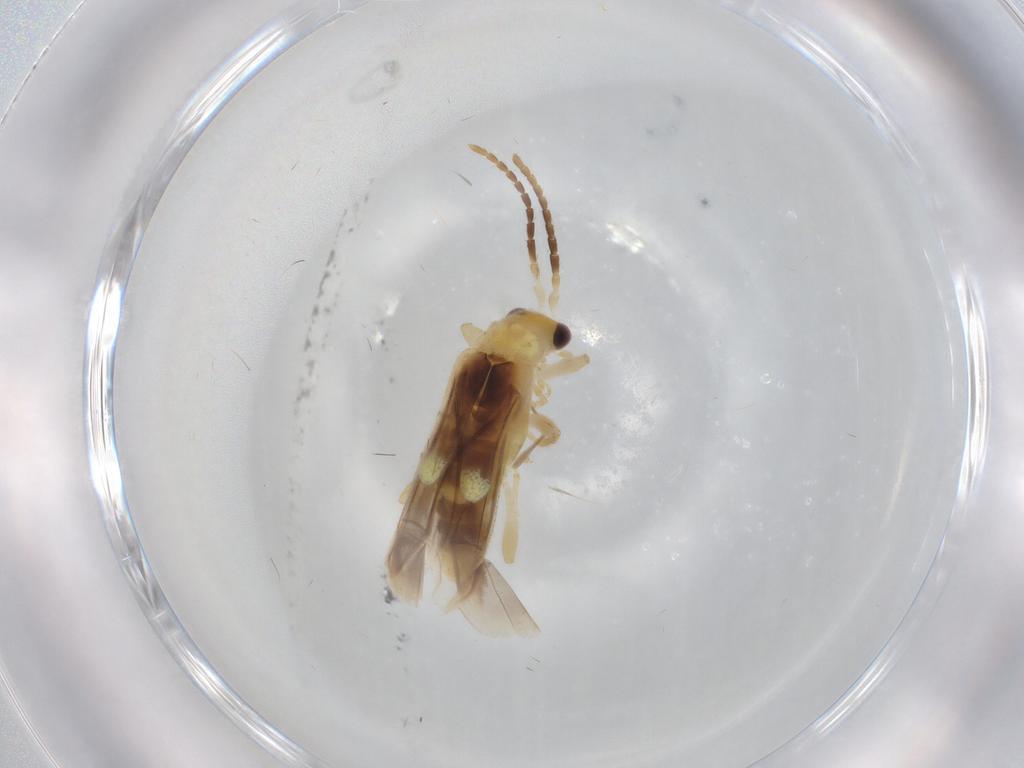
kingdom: Animalia
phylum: Arthropoda
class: Insecta
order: Coleoptera
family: Cantharidae
